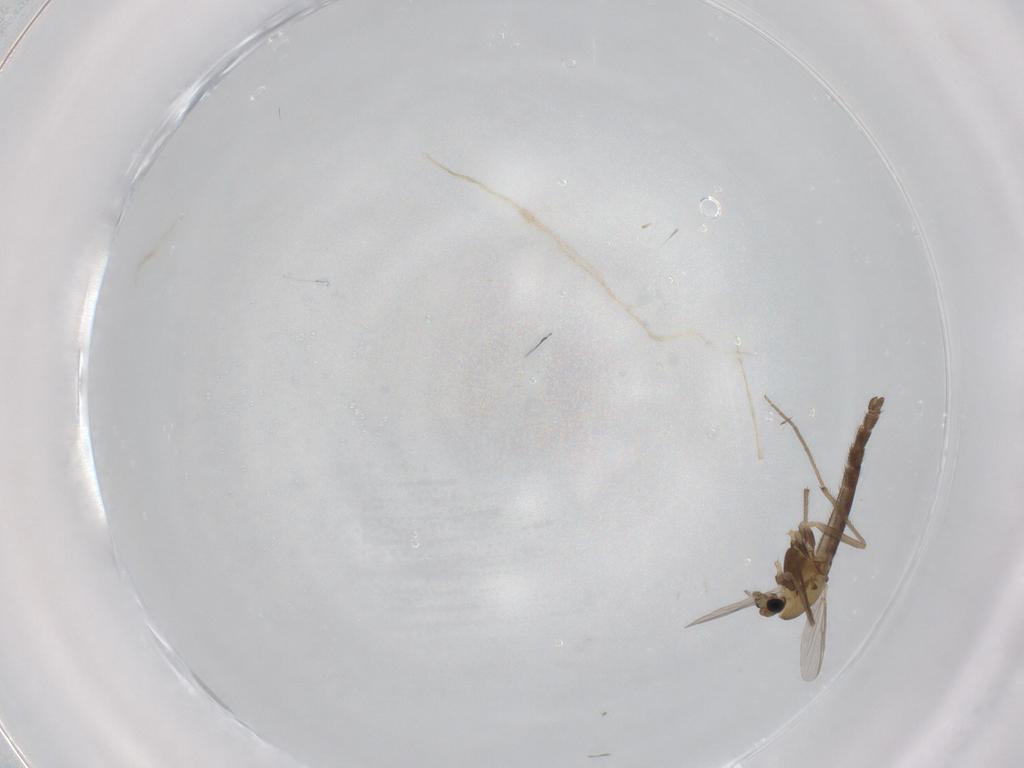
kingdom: Animalia
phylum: Arthropoda
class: Insecta
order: Diptera
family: Chironomidae
